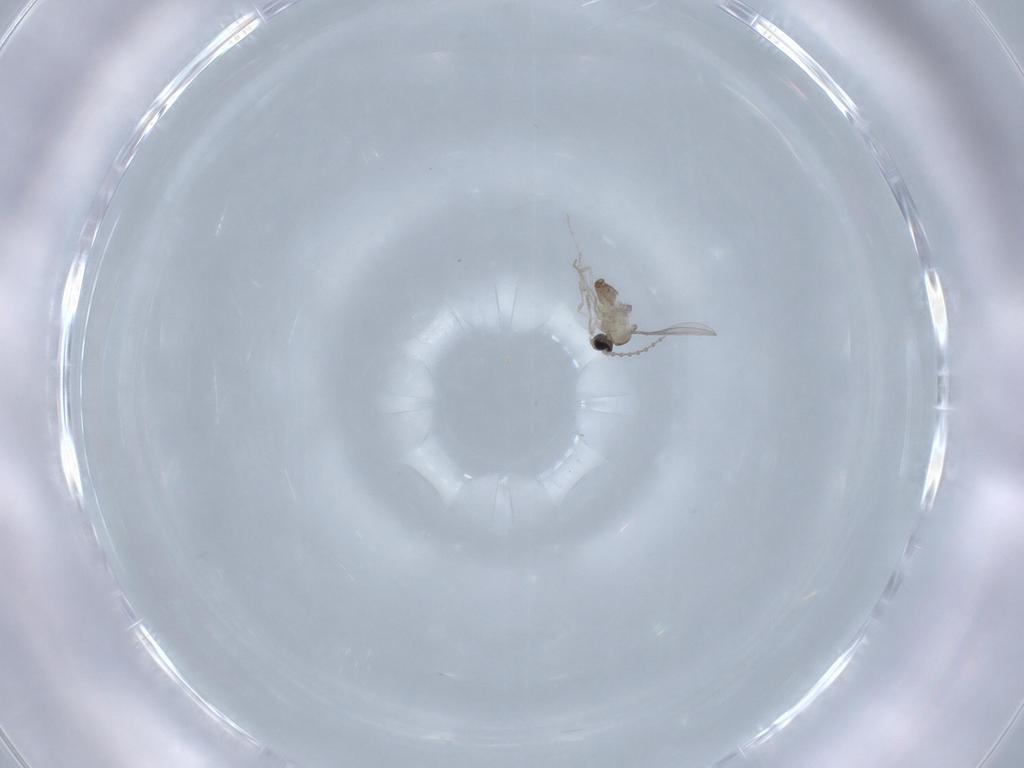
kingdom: Animalia
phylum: Arthropoda
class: Insecta
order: Diptera
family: Cecidomyiidae
